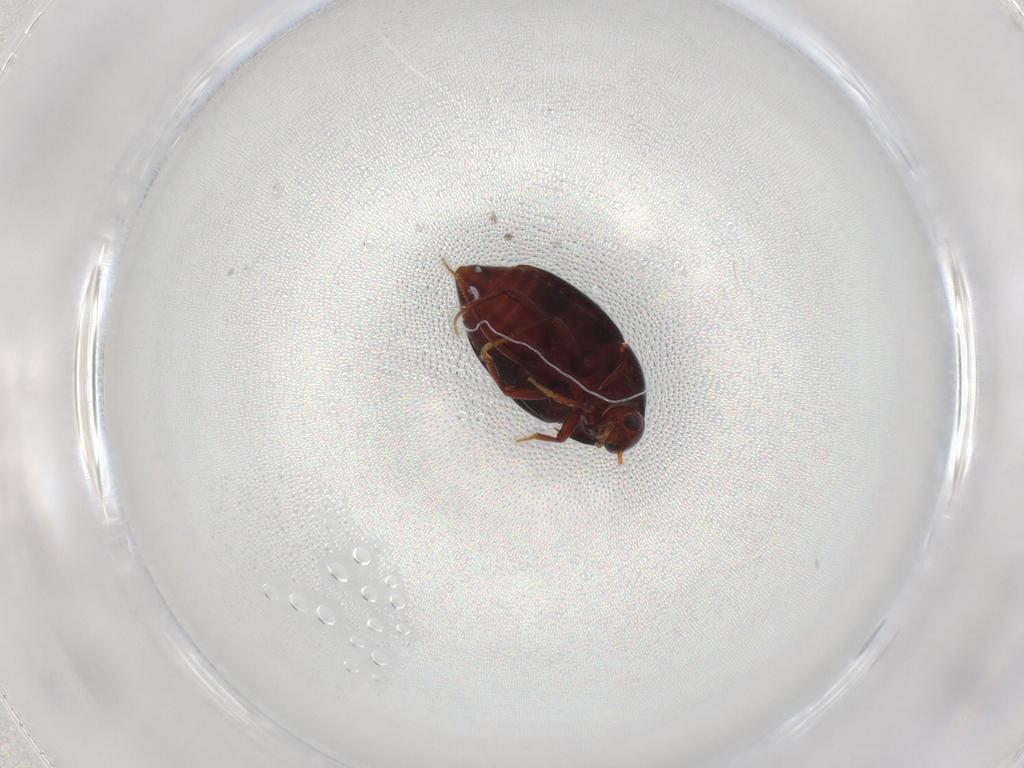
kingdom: Animalia
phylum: Arthropoda
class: Insecta
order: Coleoptera
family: Staphylinidae
